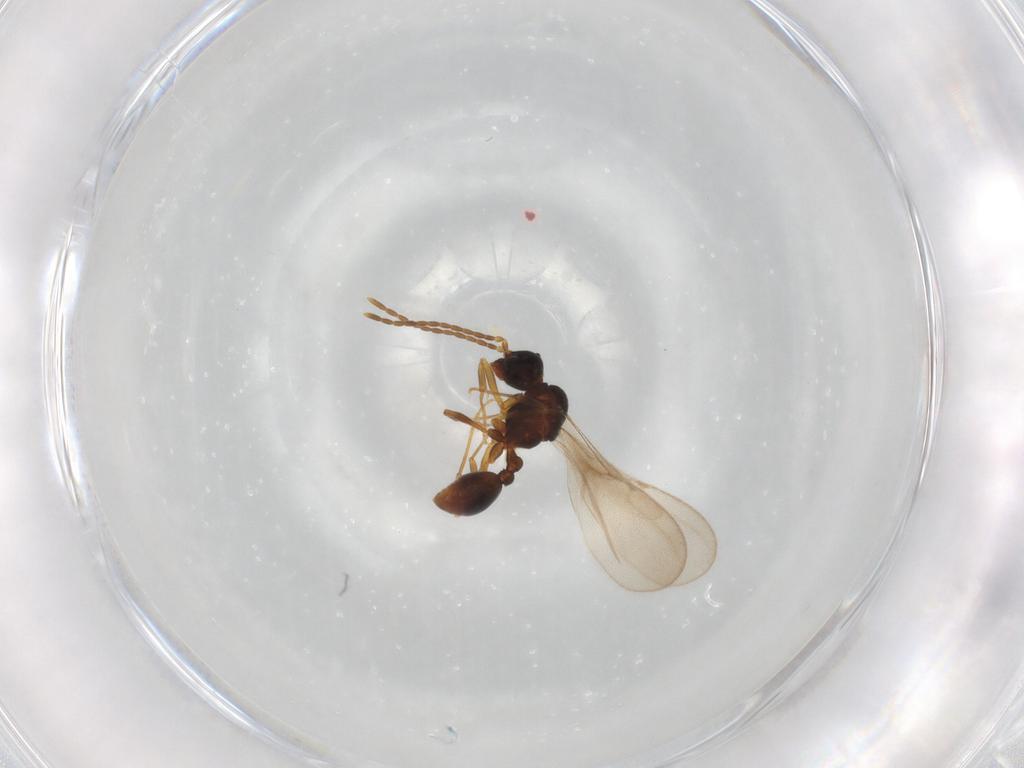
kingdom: Animalia
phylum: Arthropoda
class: Insecta
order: Hymenoptera
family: Formicidae
